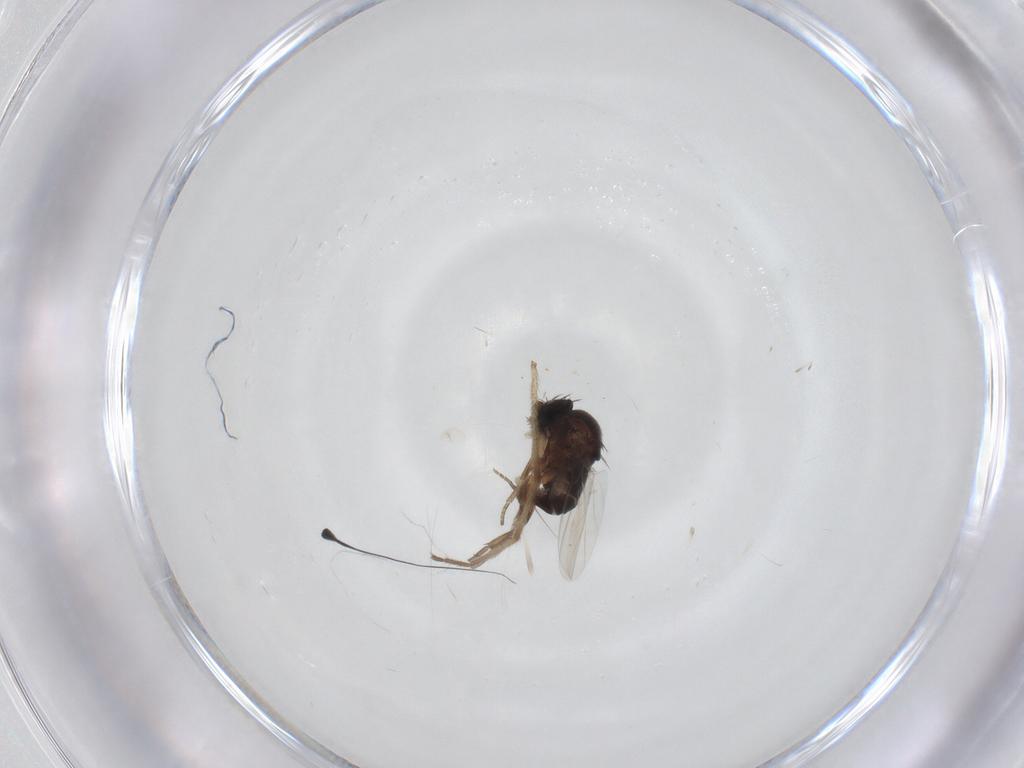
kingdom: Animalia
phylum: Arthropoda
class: Insecta
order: Diptera
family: Phoridae
